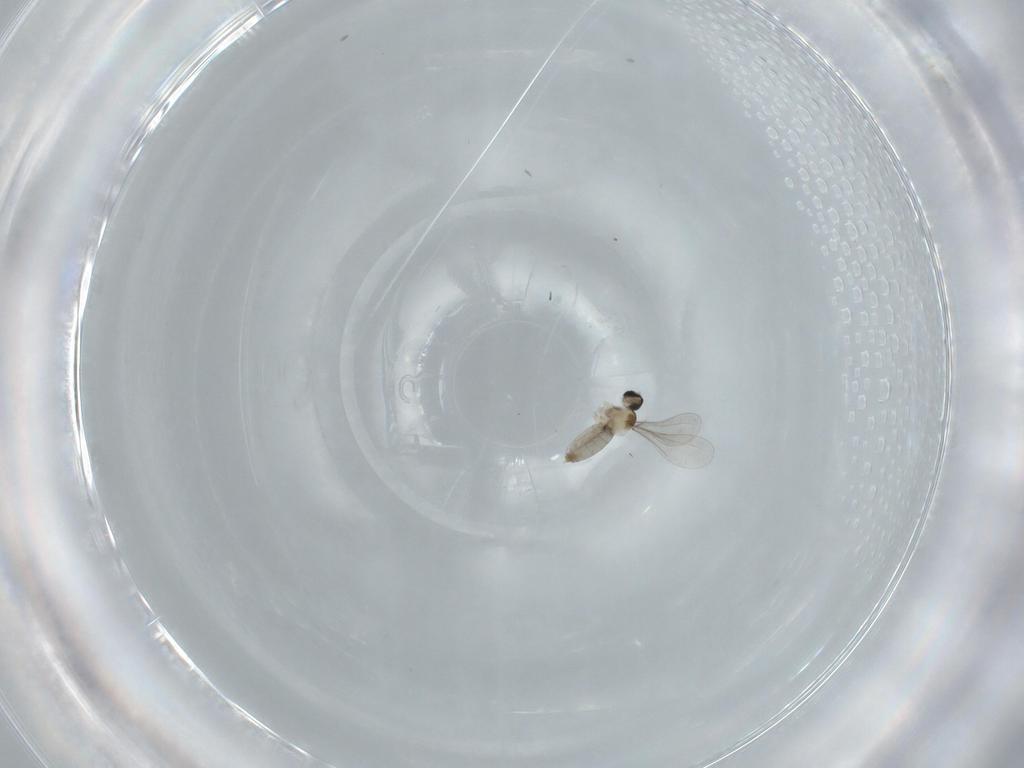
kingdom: Animalia
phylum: Arthropoda
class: Insecta
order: Diptera
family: Ceratopogonidae
